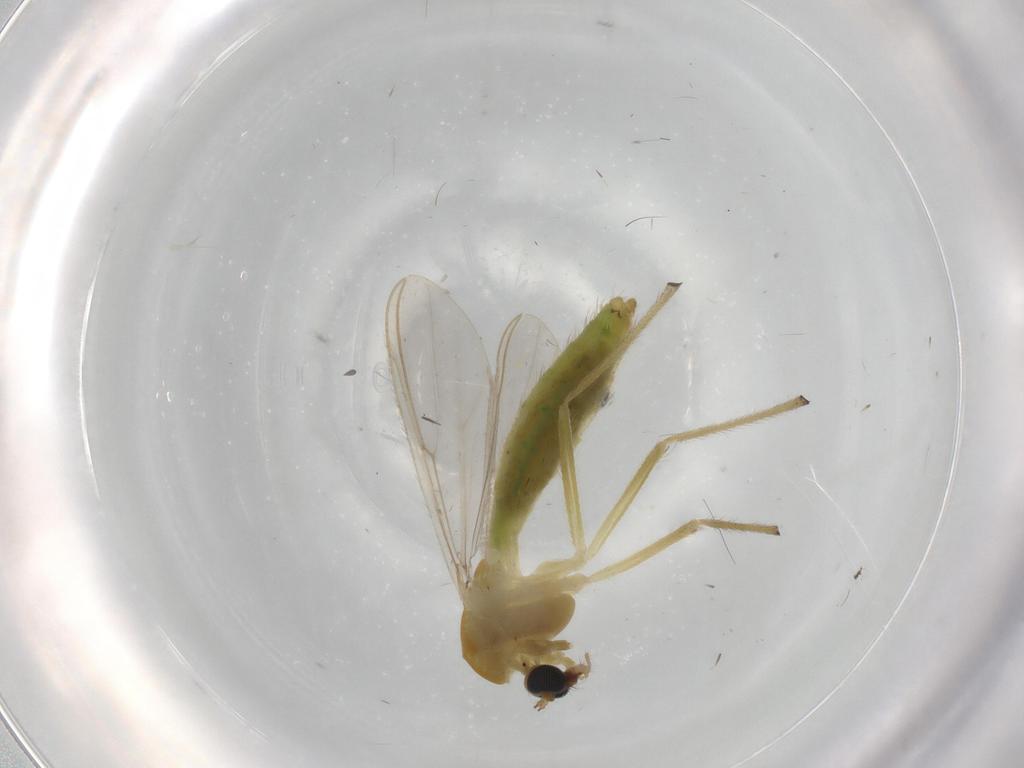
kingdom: Animalia
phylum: Arthropoda
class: Insecta
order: Diptera
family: Chironomidae
